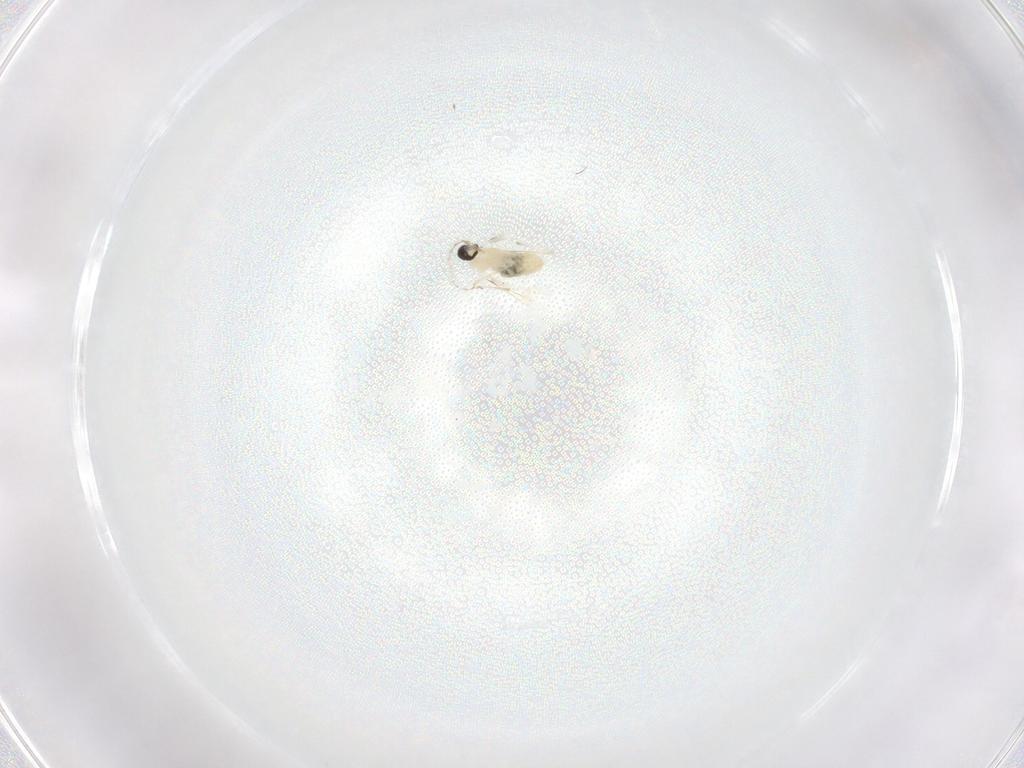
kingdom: Animalia
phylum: Arthropoda
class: Insecta
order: Diptera
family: Cecidomyiidae
